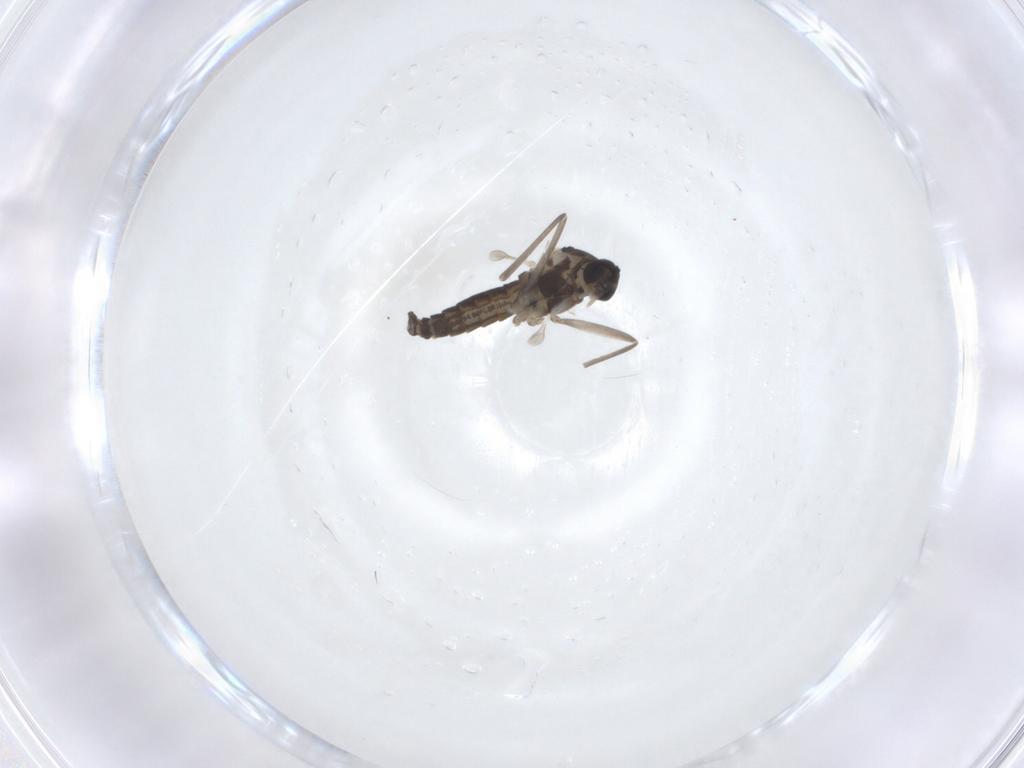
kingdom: Animalia
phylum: Arthropoda
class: Insecta
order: Diptera
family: Cecidomyiidae
